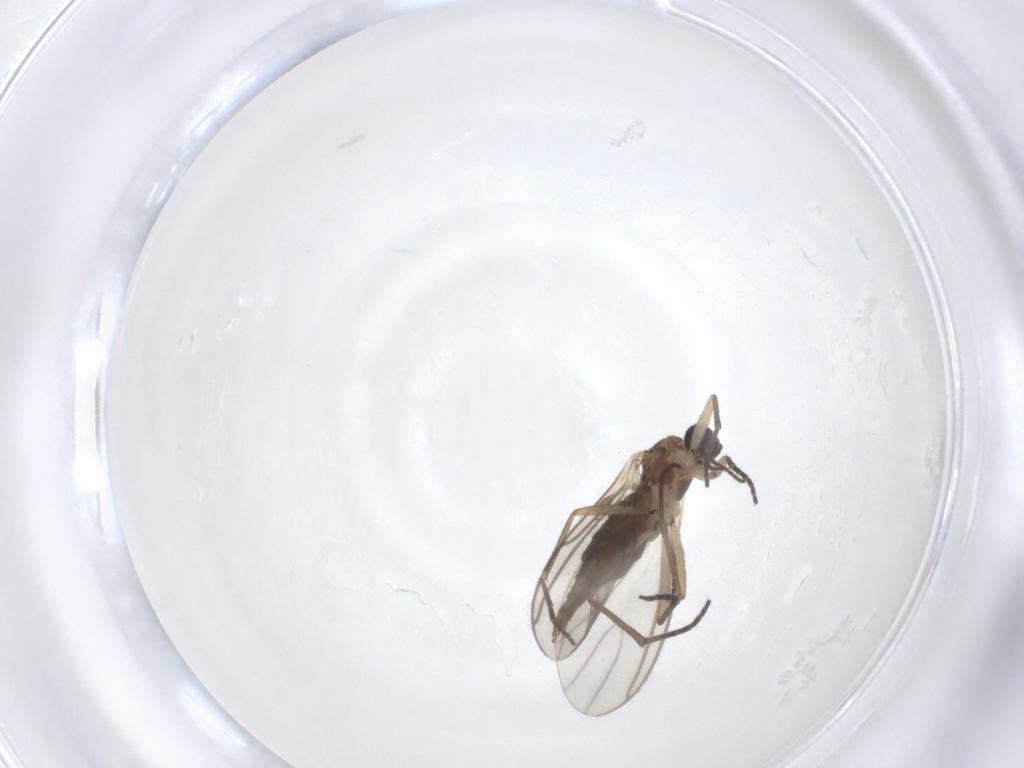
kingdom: Animalia
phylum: Arthropoda
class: Insecta
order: Diptera
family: Sciaridae
